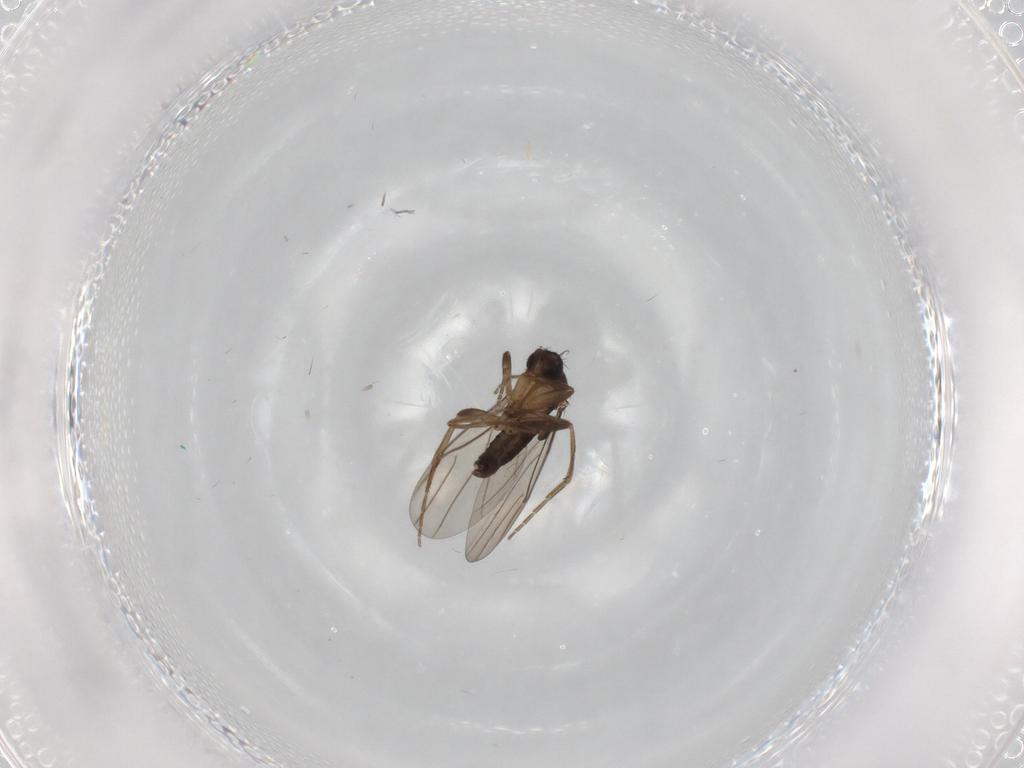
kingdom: Animalia
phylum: Arthropoda
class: Insecta
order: Diptera
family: Phoridae
